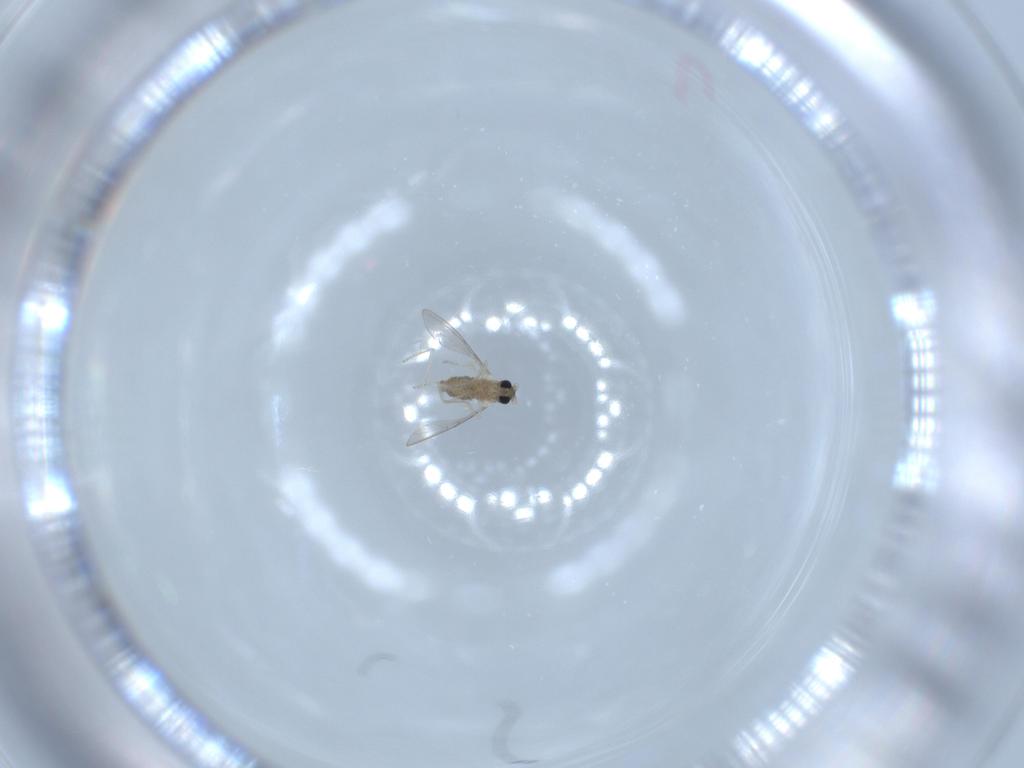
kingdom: Animalia
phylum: Arthropoda
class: Insecta
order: Diptera
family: Cecidomyiidae
